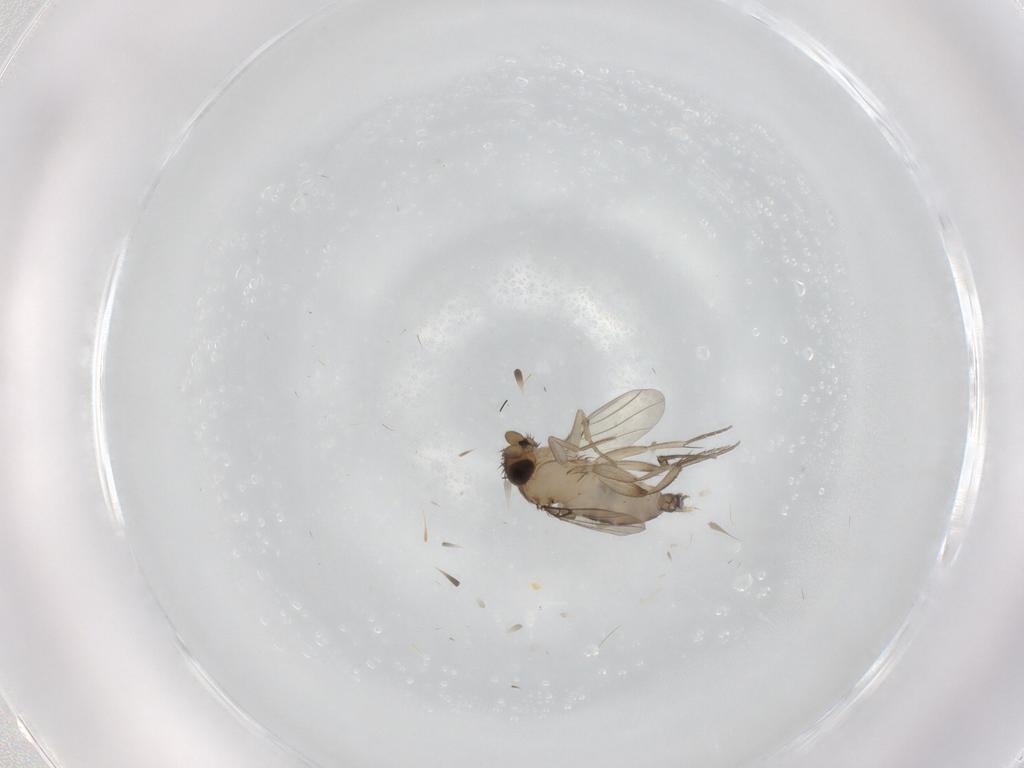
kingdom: Animalia
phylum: Arthropoda
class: Insecta
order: Diptera
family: Phoridae
